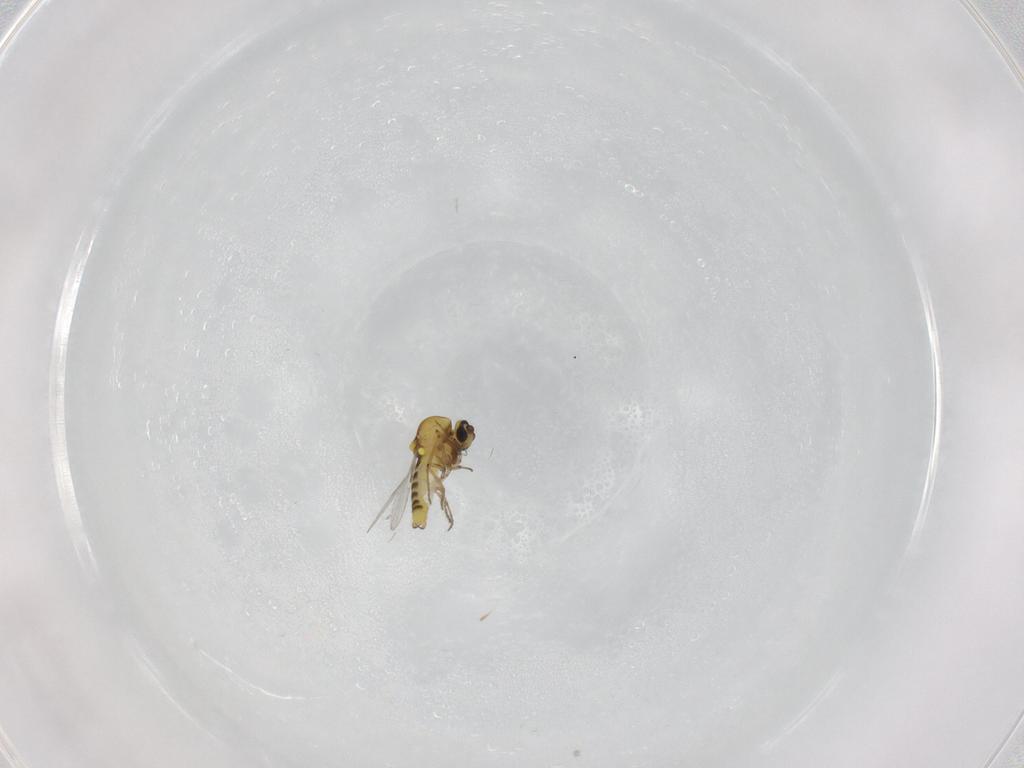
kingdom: Animalia
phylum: Arthropoda
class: Insecta
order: Diptera
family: Ceratopogonidae
